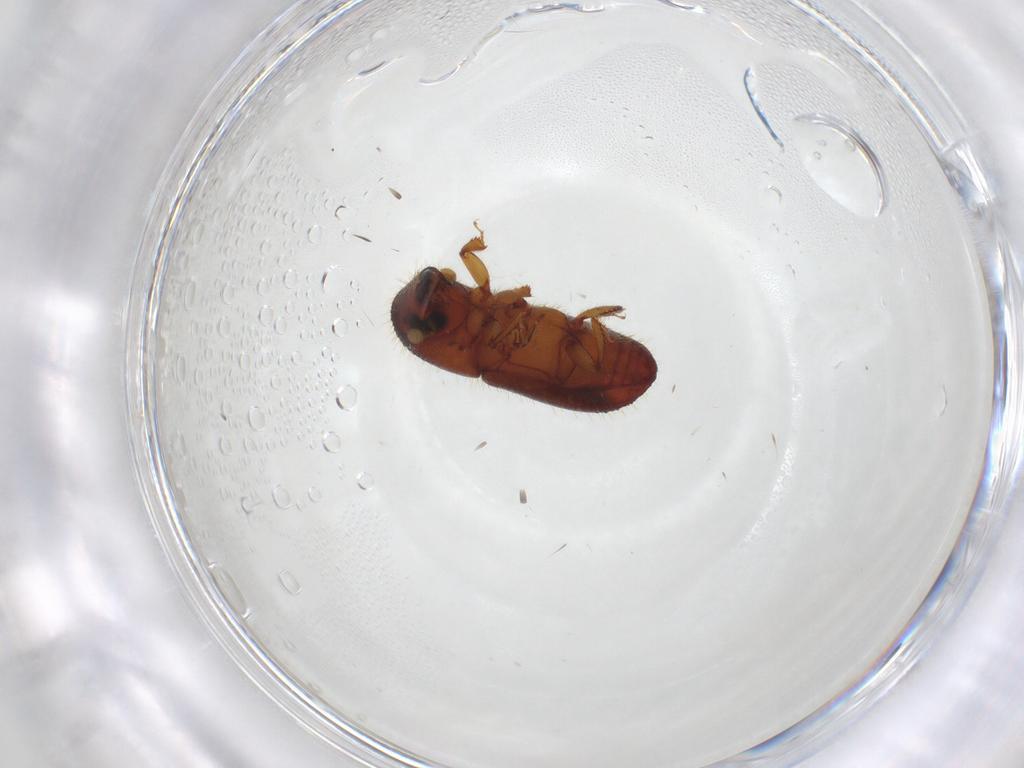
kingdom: Animalia
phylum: Arthropoda
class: Insecta
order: Coleoptera
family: Curculionidae
